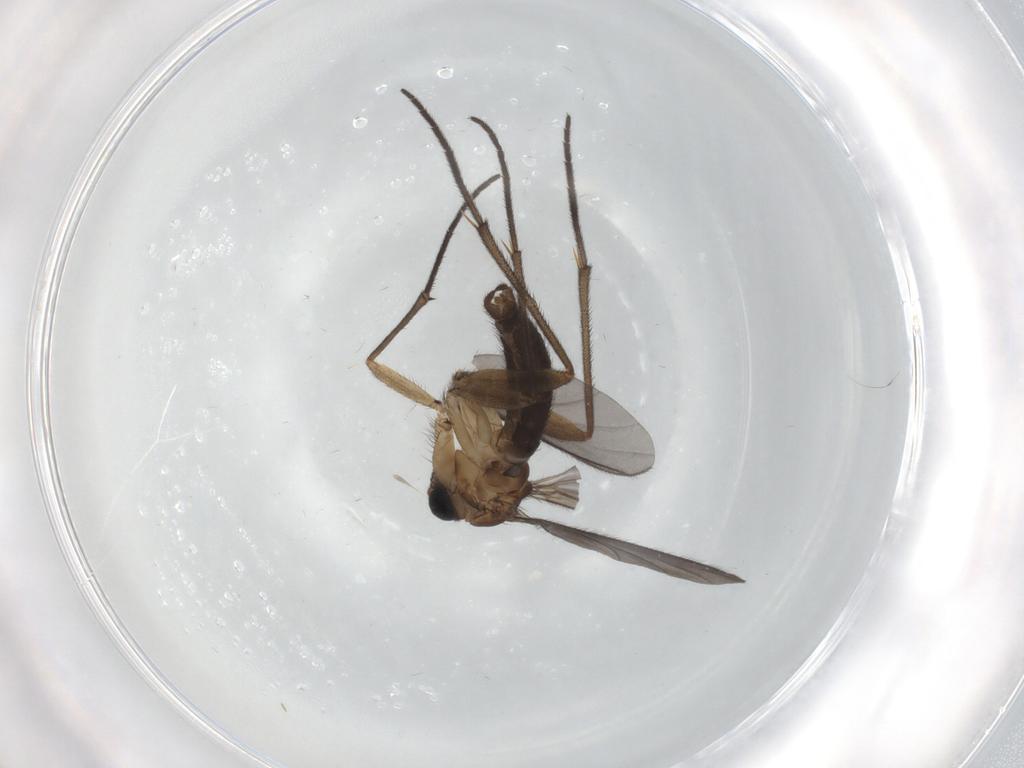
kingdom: Animalia
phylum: Arthropoda
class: Insecta
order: Diptera
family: Sciaridae
